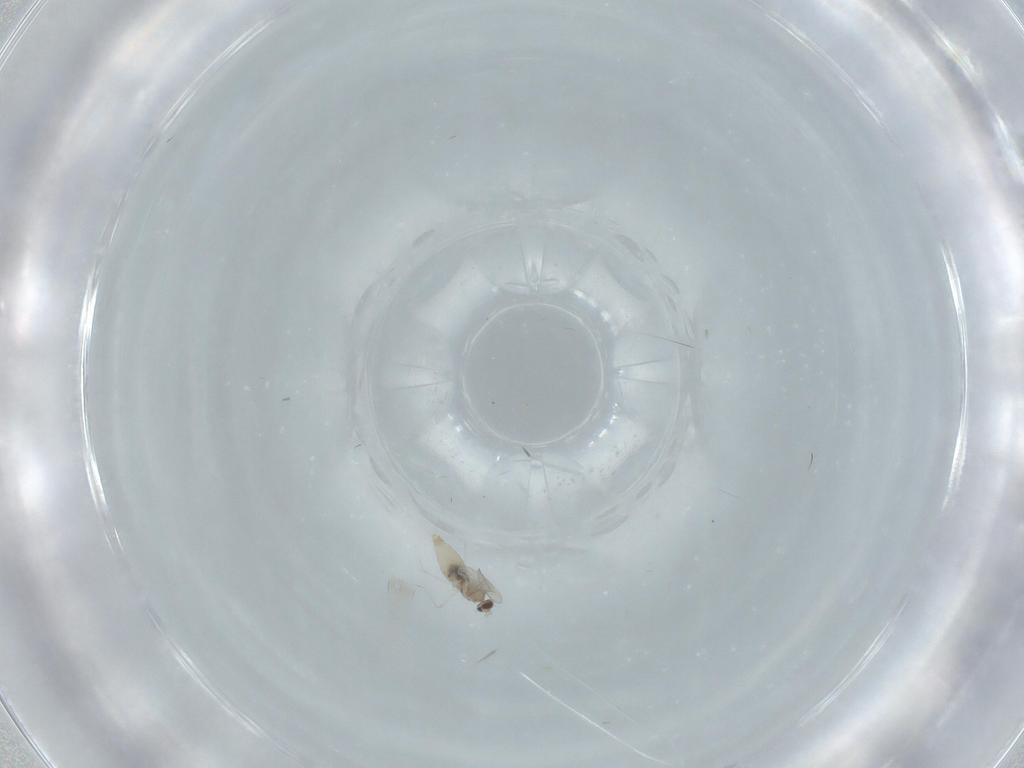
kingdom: Animalia
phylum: Arthropoda
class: Insecta
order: Diptera
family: Cecidomyiidae
